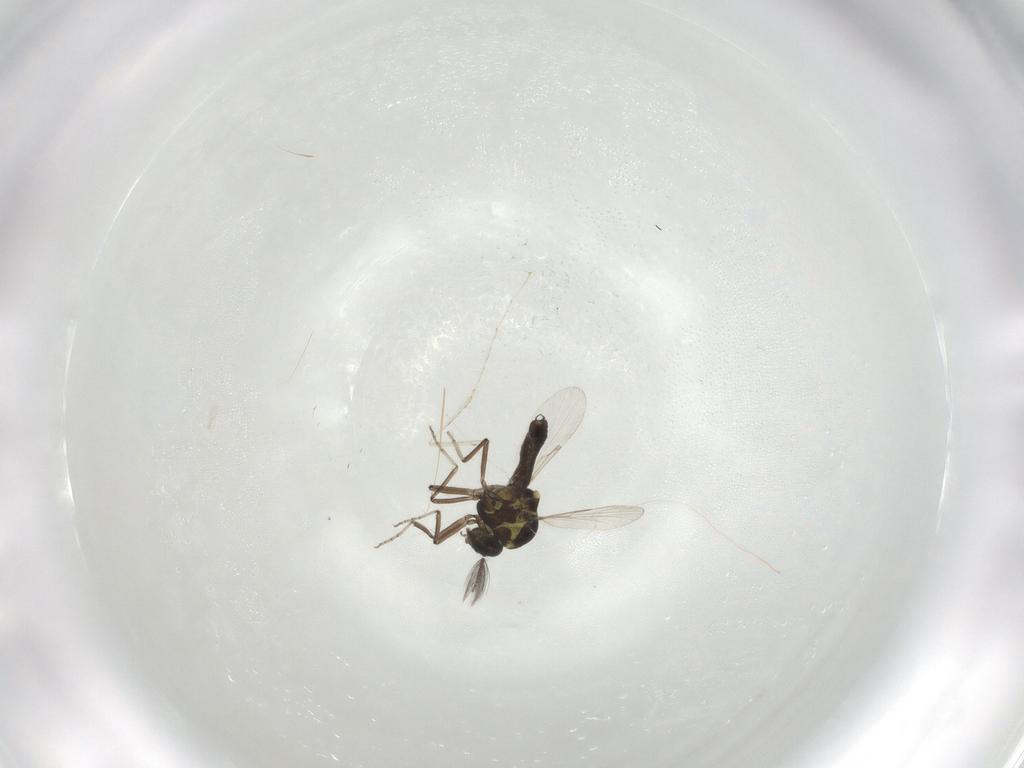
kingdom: Animalia
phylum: Arthropoda
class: Insecta
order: Diptera
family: Ceratopogonidae
